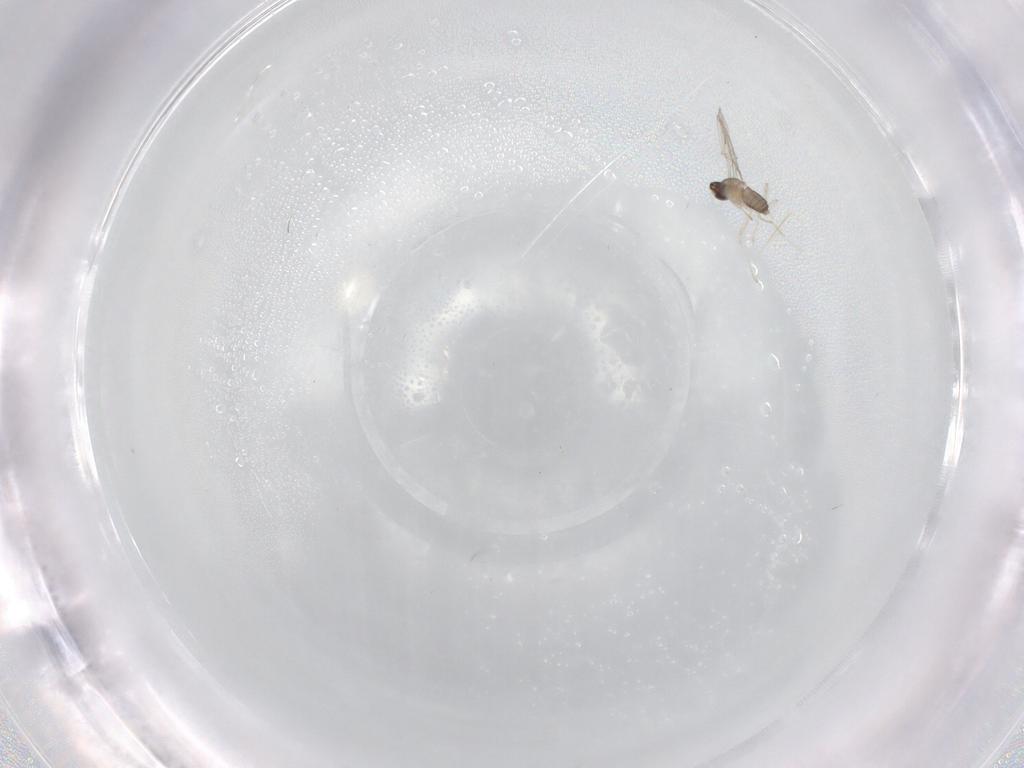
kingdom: Animalia
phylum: Arthropoda
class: Insecta
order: Diptera
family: Cecidomyiidae
